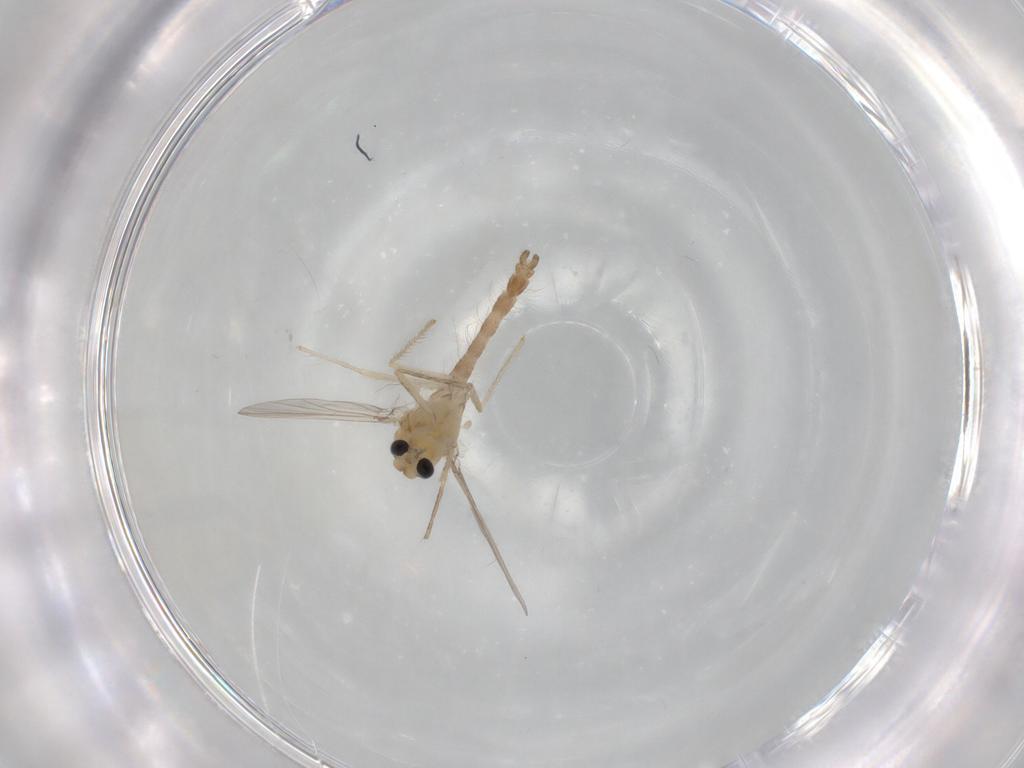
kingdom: Animalia
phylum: Arthropoda
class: Insecta
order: Diptera
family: Chironomidae
